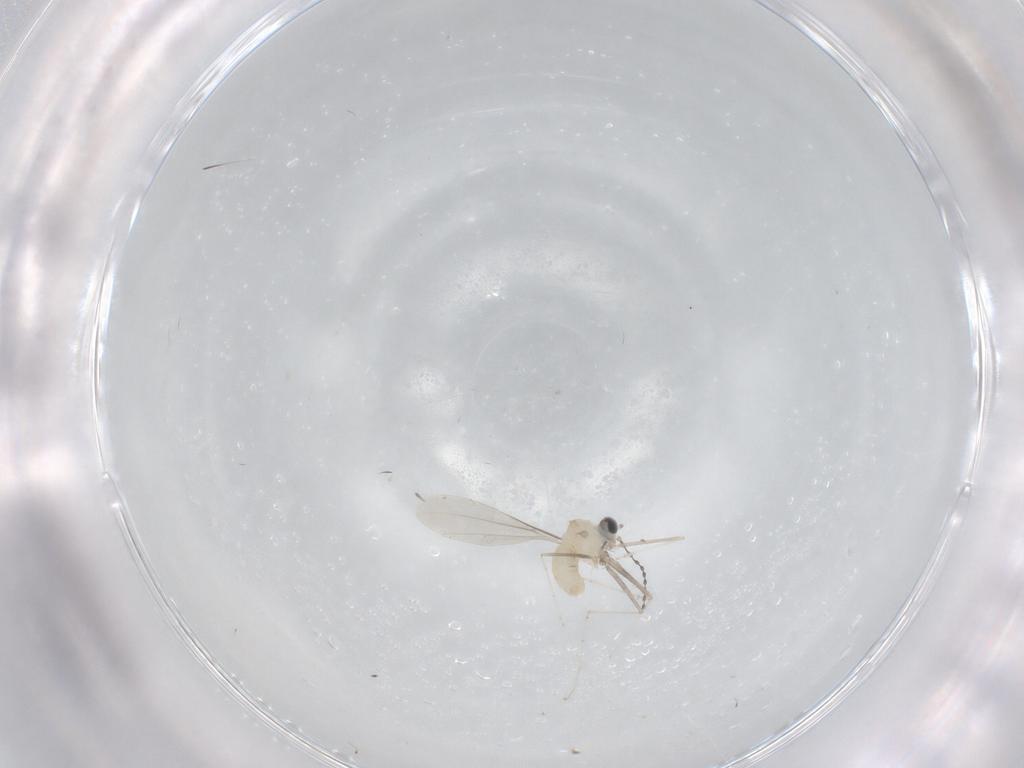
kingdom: Animalia
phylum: Arthropoda
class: Insecta
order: Diptera
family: Cecidomyiidae
